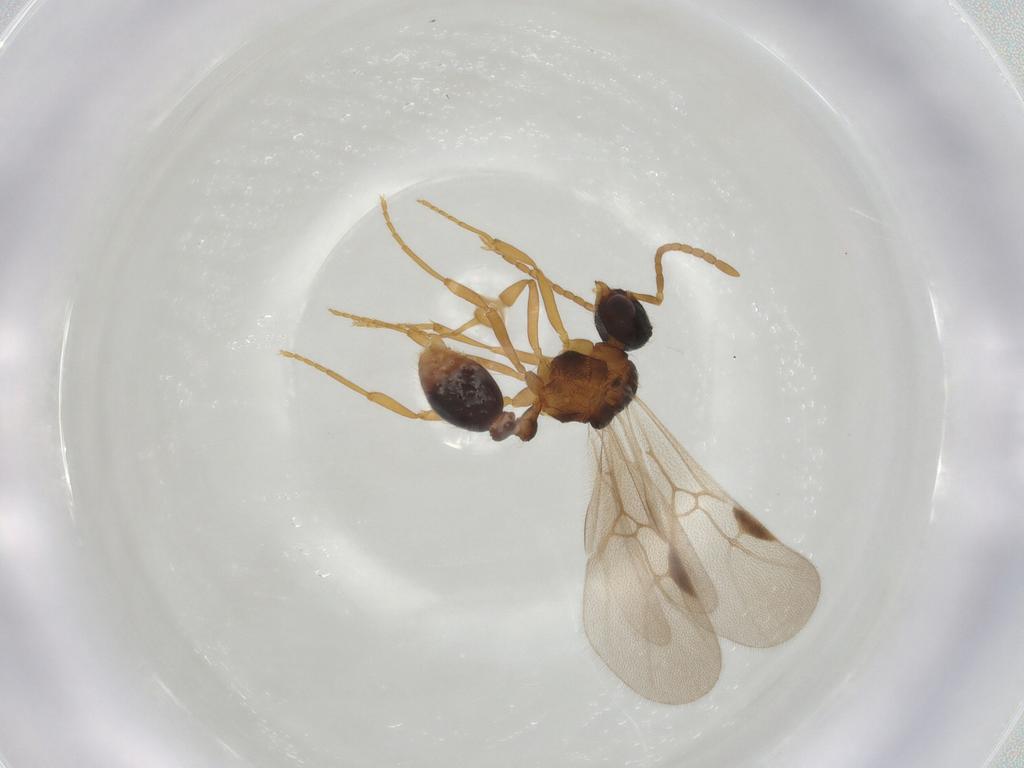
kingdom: Animalia
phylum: Arthropoda
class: Insecta
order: Hymenoptera
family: Formicidae
